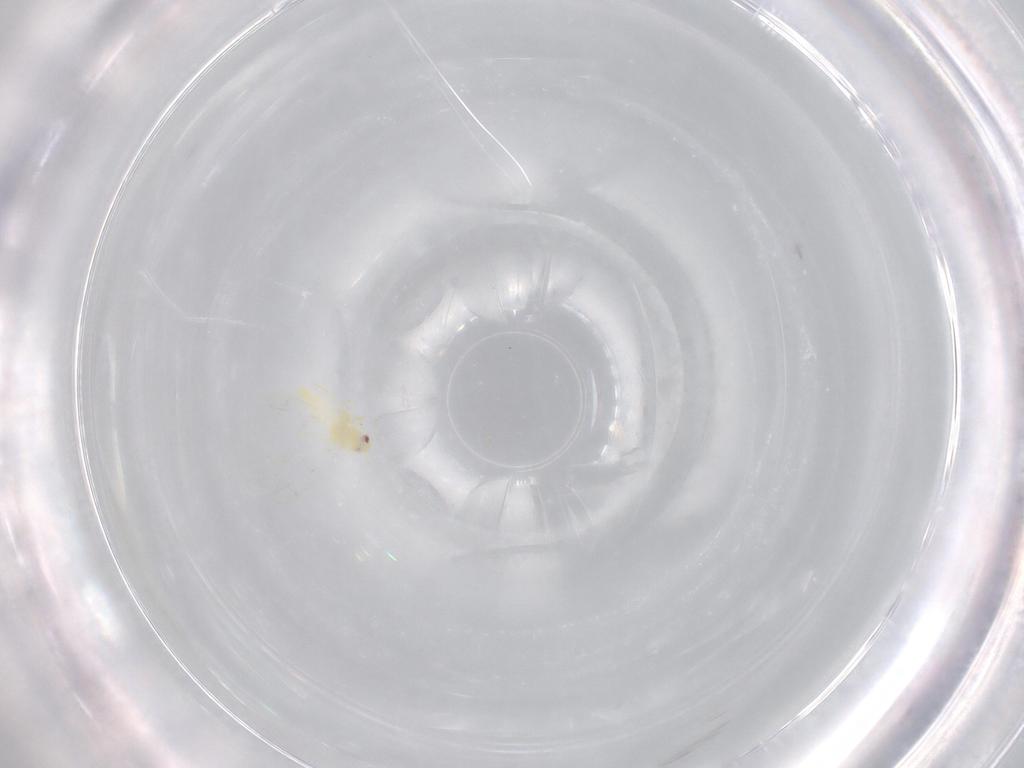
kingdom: Animalia
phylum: Arthropoda
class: Insecta
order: Hemiptera
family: Aleyrodidae
